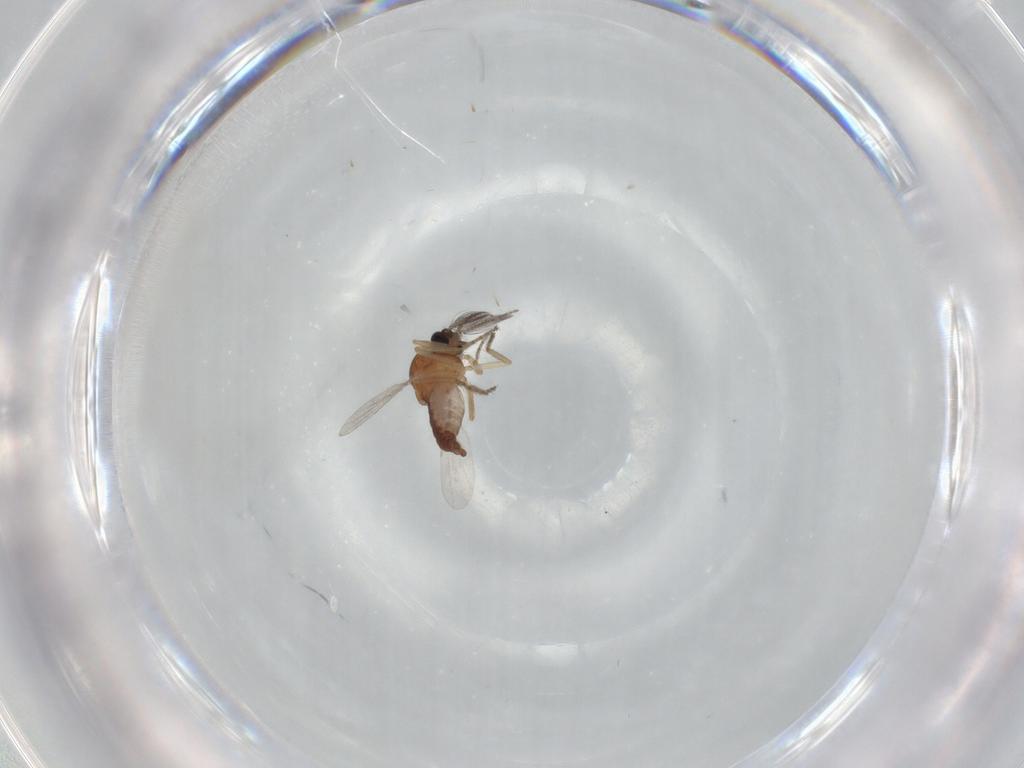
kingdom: Animalia
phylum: Arthropoda
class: Insecta
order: Diptera
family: Ceratopogonidae
